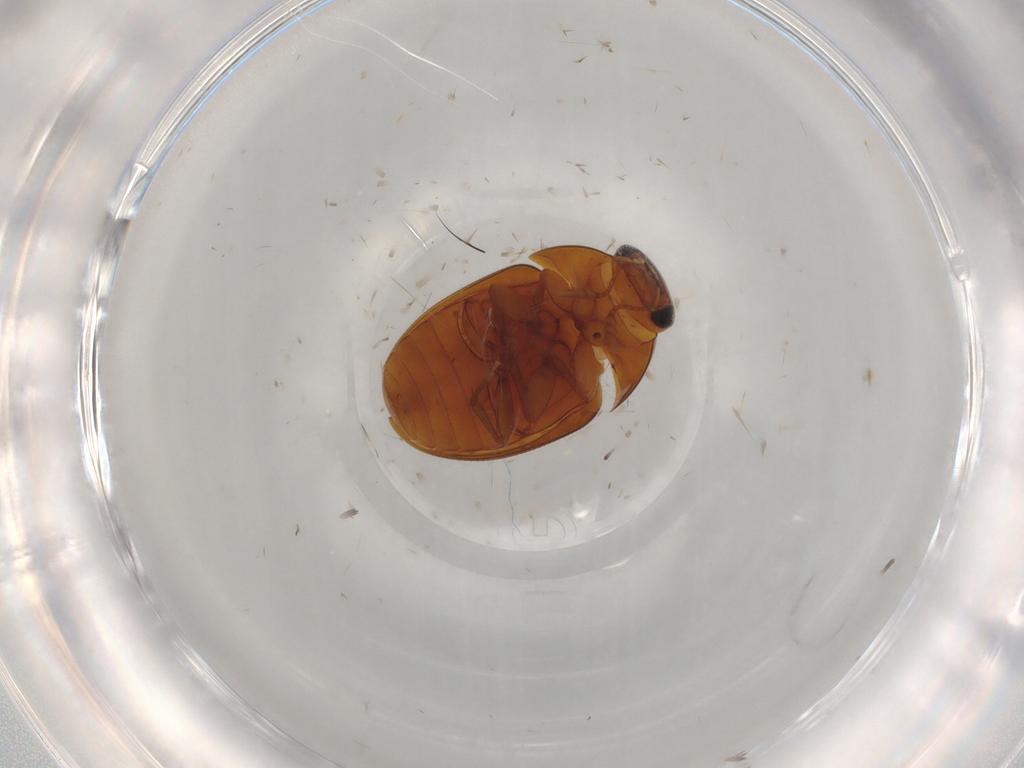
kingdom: Animalia
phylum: Arthropoda
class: Insecta
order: Coleoptera
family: Phalacridae
